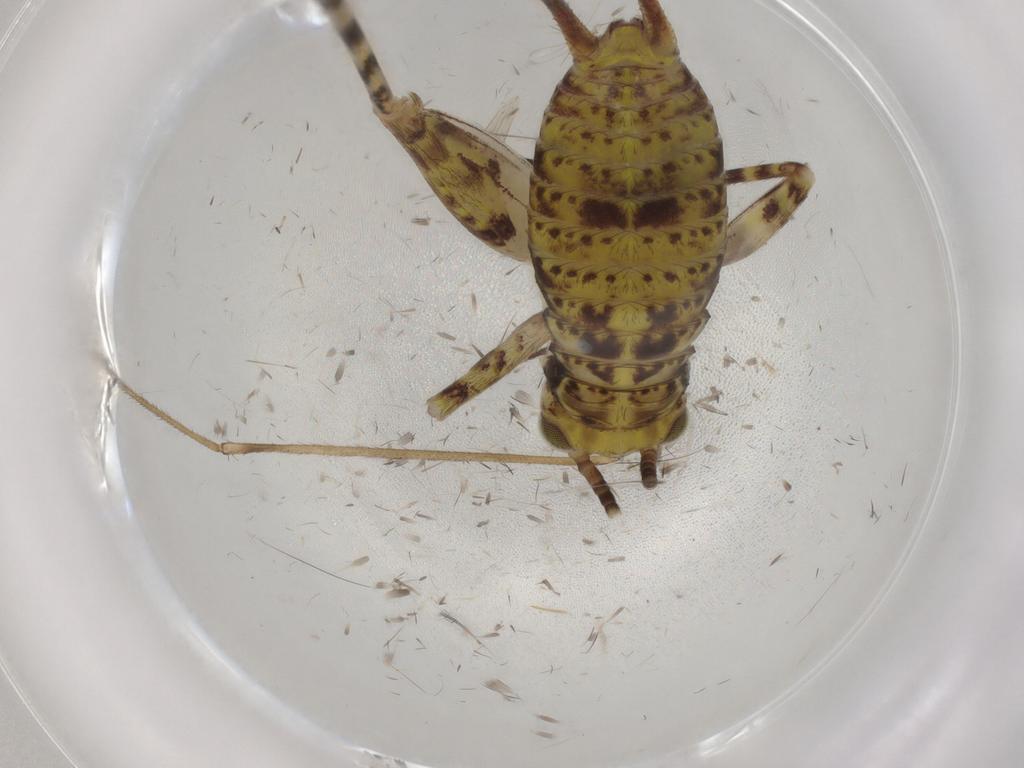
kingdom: Animalia
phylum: Arthropoda
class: Insecta
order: Orthoptera
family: Gryllidae
